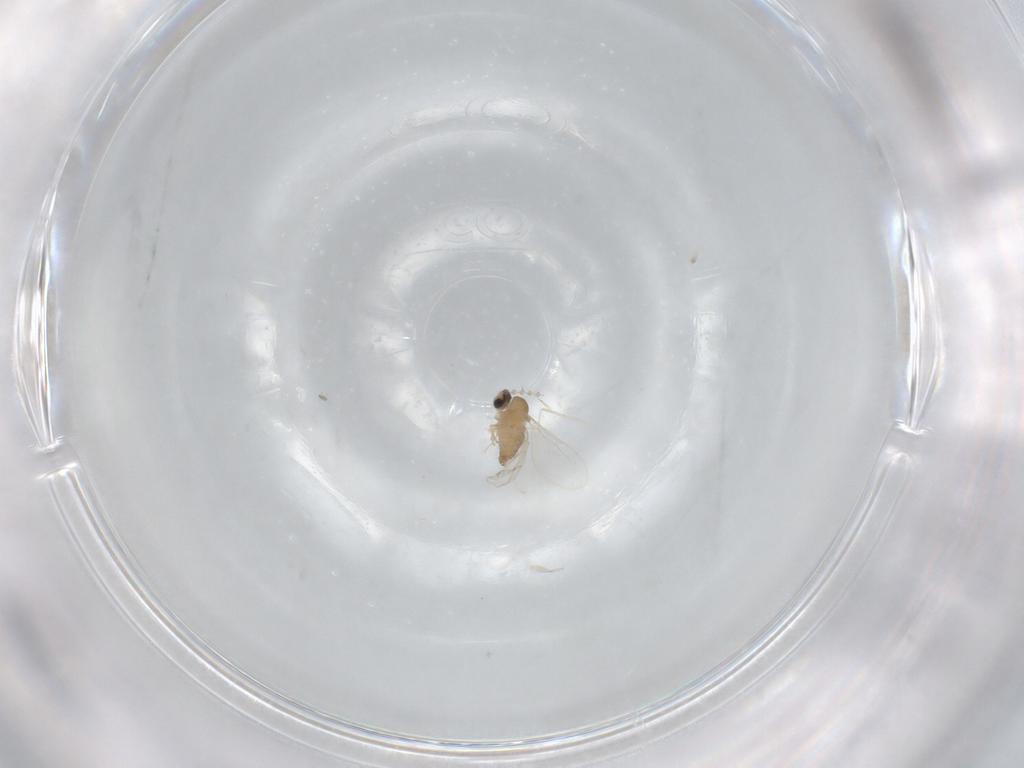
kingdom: Animalia
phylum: Arthropoda
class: Insecta
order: Diptera
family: Cecidomyiidae
